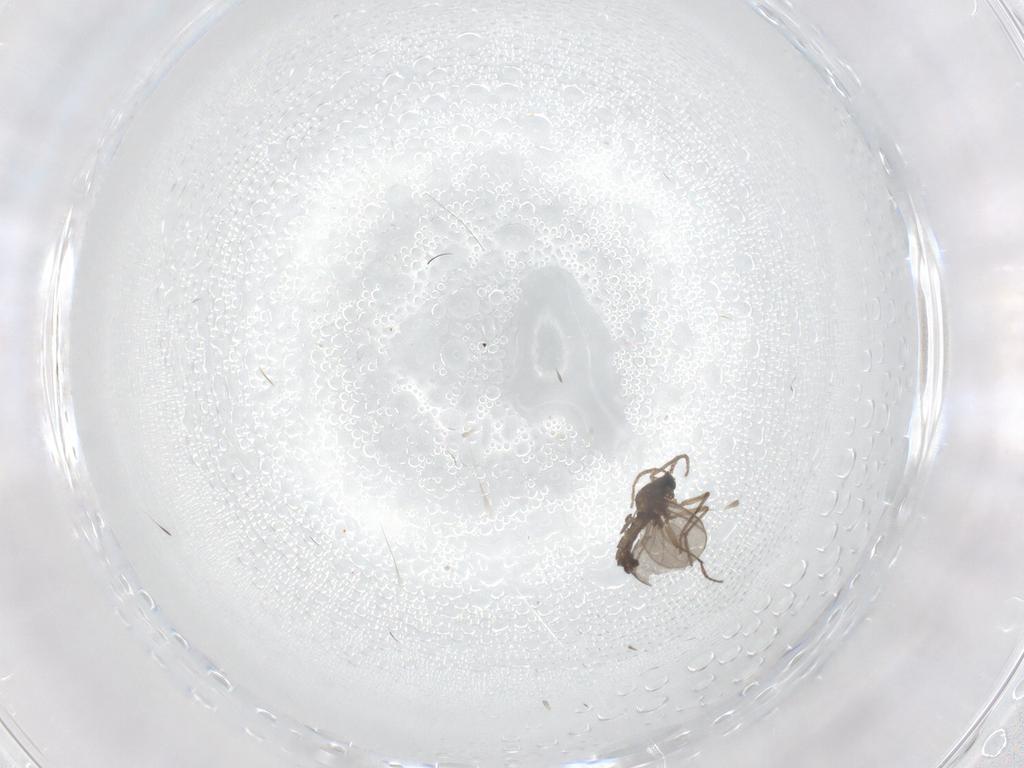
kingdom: Animalia
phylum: Arthropoda
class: Insecta
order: Diptera
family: Sciaridae
